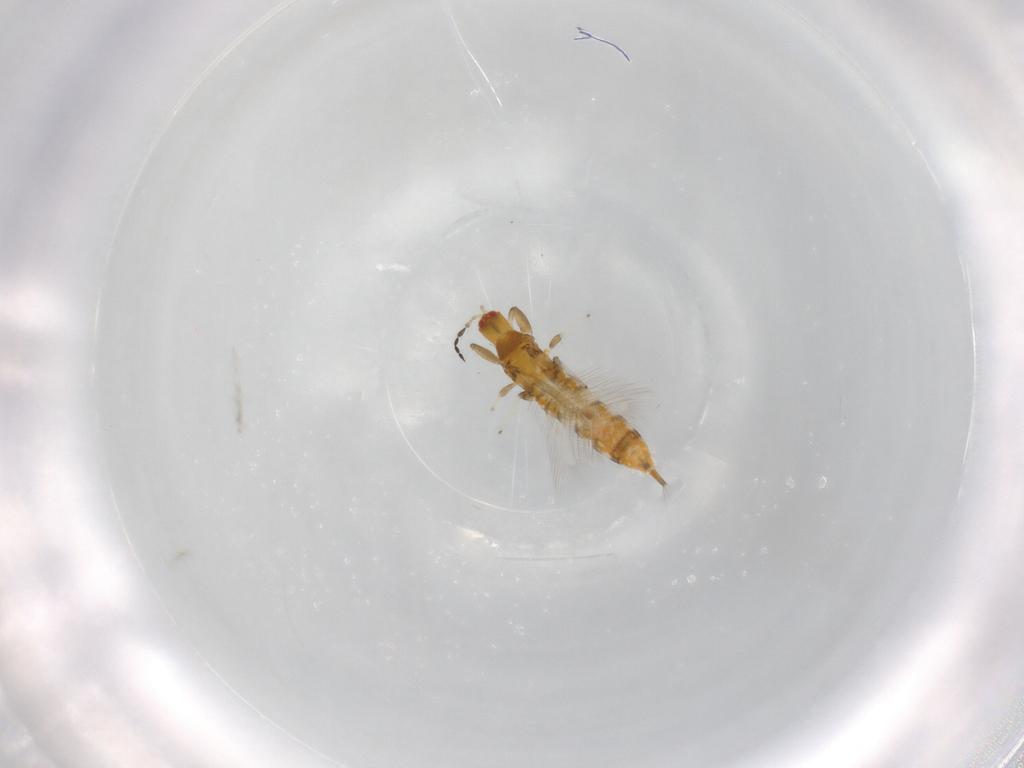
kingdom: Animalia
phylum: Arthropoda
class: Insecta
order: Thysanoptera
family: Phlaeothripidae
